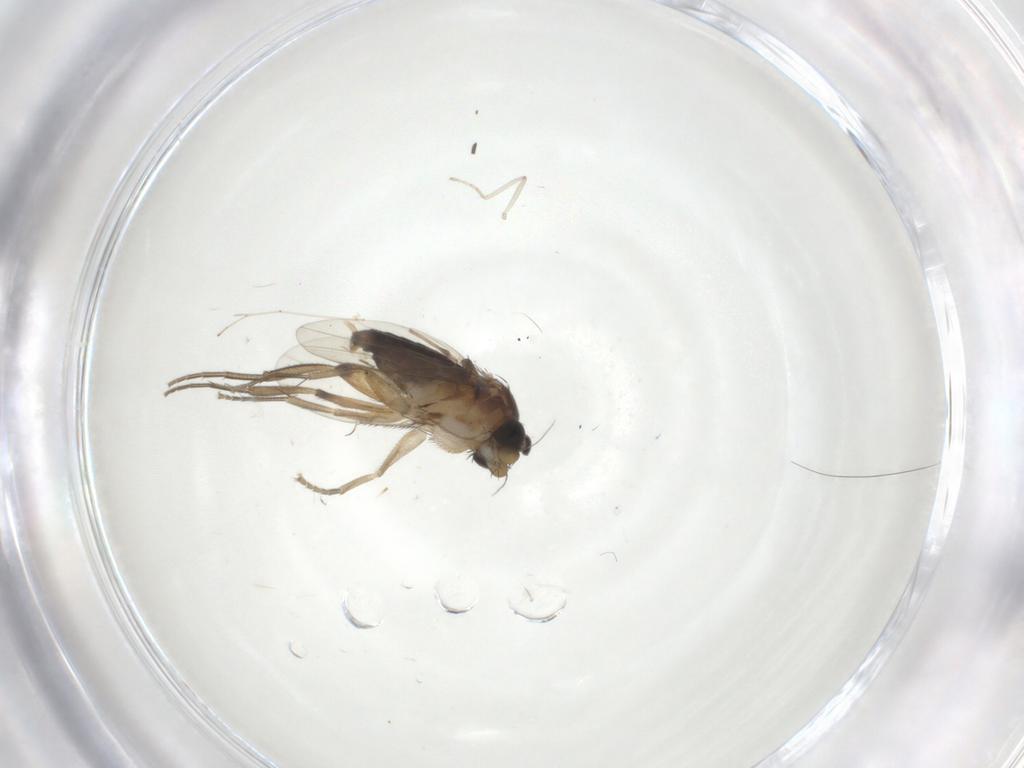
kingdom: Animalia
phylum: Arthropoda
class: Insecta
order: Diptera
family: Phoridae
